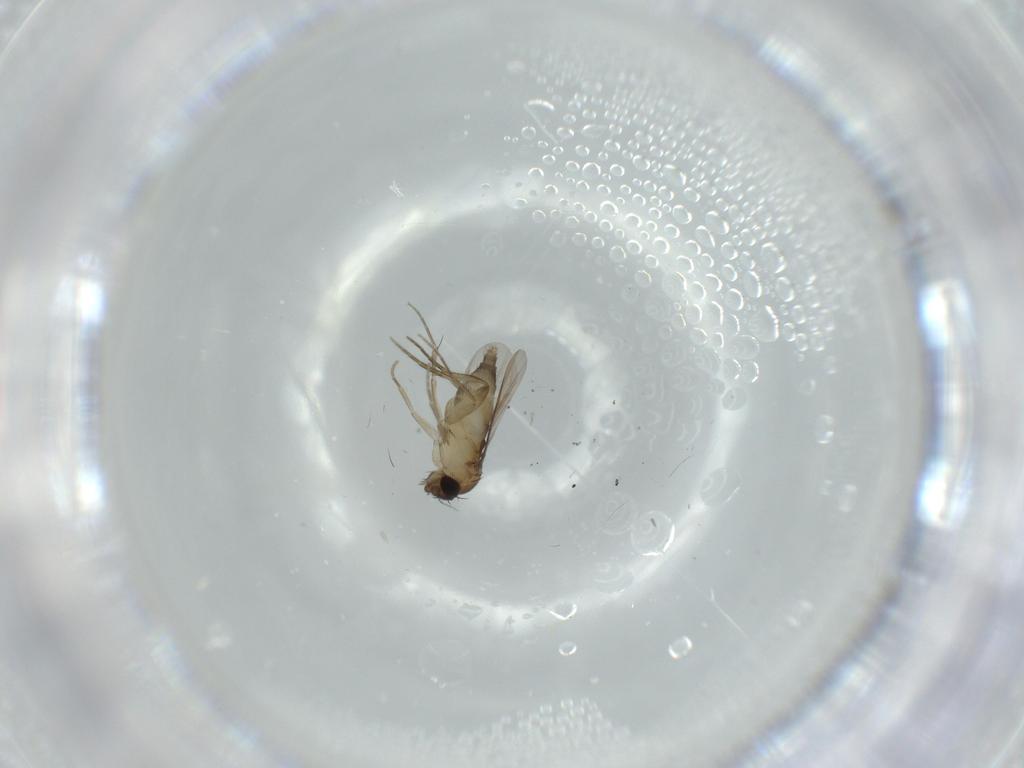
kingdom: Animalia
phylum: Arthropoda
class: Insecta
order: Diptera
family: Phoridae
